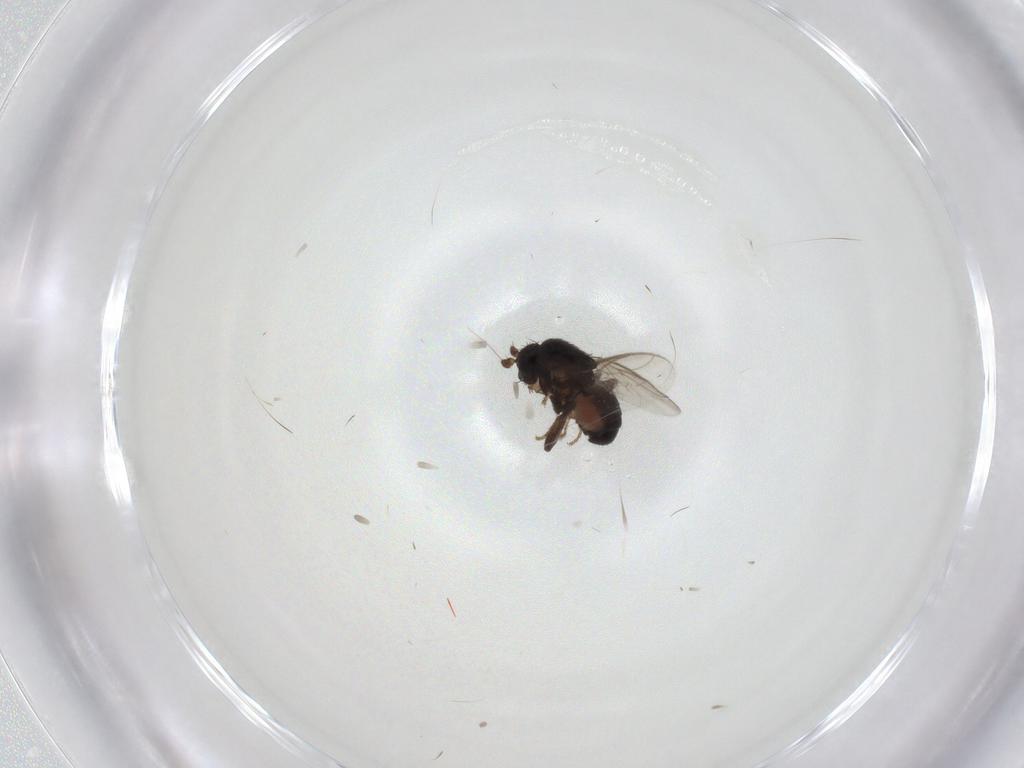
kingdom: Animalia
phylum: Arthropoda
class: Insecta
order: Diptera
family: Sphaeroceridae
